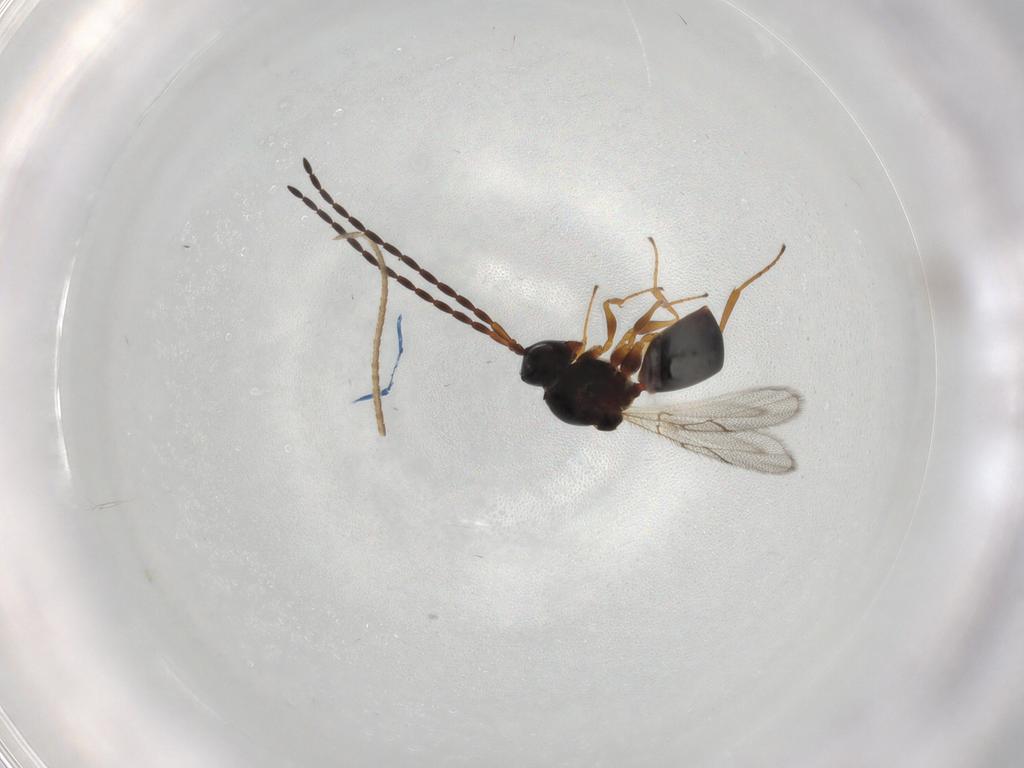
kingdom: Animalia
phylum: Arthropoda
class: Insecta
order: Hymenoptera
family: Figitidae
